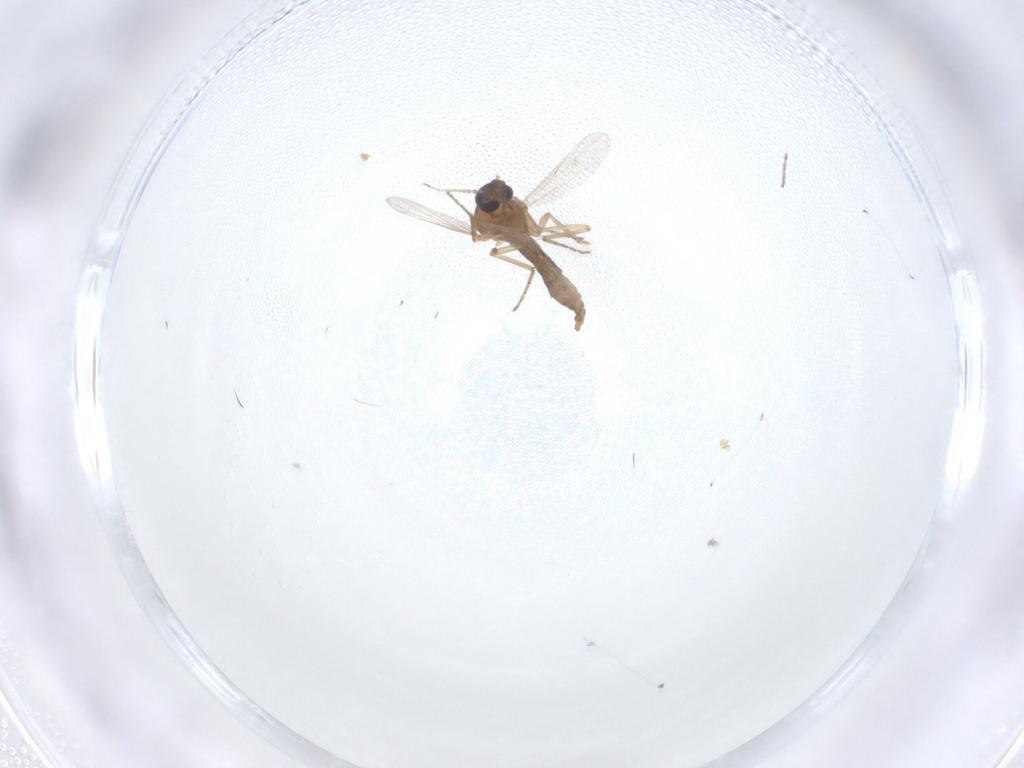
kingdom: Animalia
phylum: Arthropoda
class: Insecta
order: Diptera
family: Ceratopogonidae
